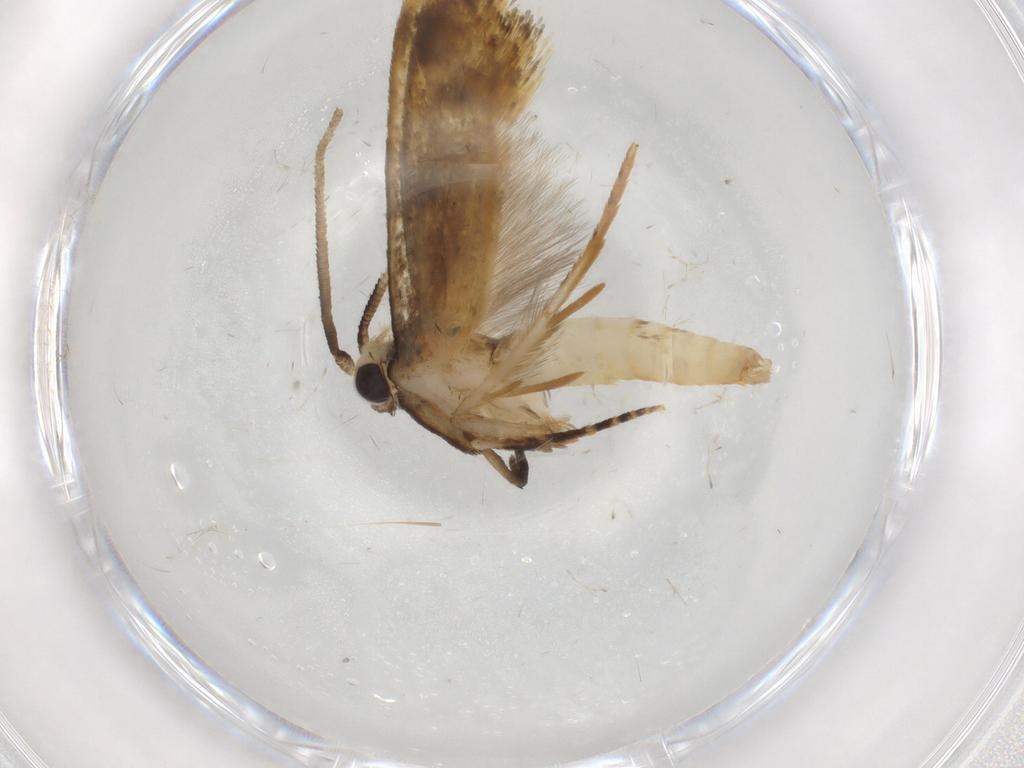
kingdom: Animalia
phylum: Arthropoda
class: Insecta
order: Lepidoptera
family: Tineidae
